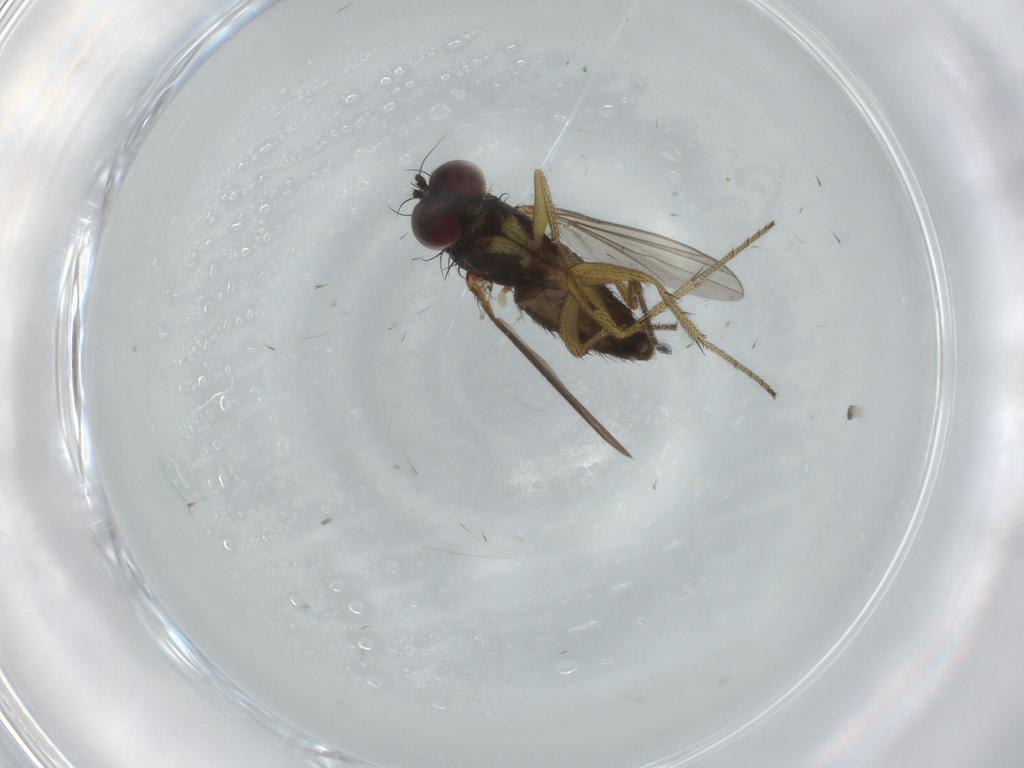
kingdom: Animalia
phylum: Arthropoda
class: Insecta
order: Diptera
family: Dolichopodidae
